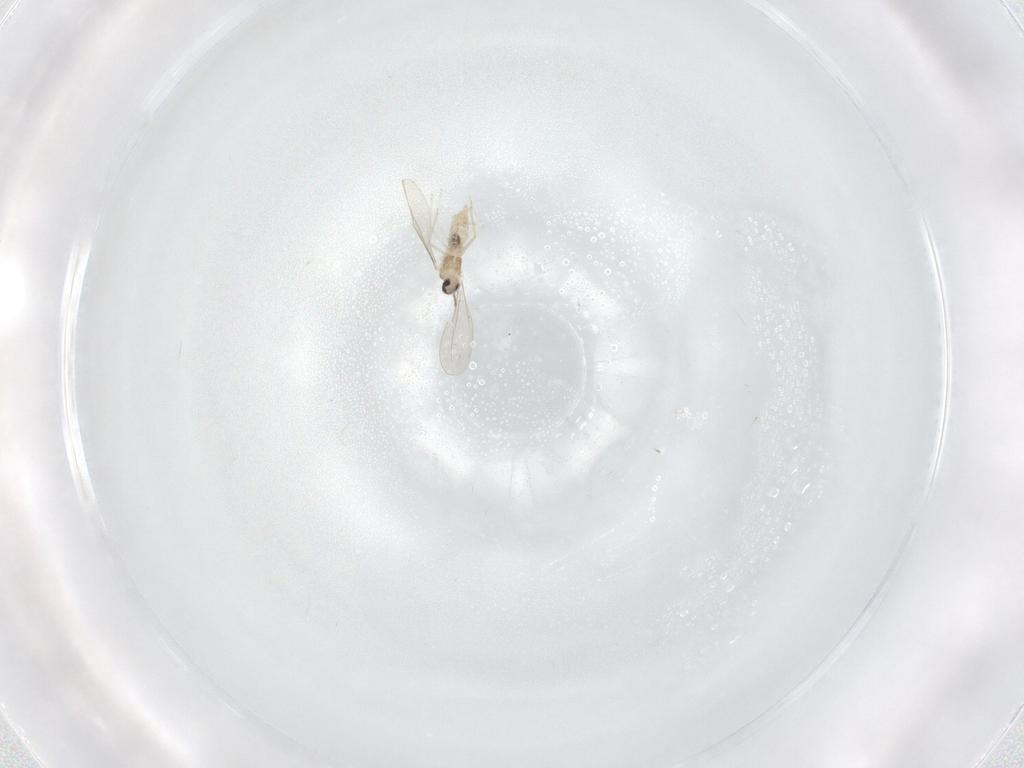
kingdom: Animalia
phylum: Arthropoda
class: Insecta
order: Diptera
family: Cecidomyiidae
